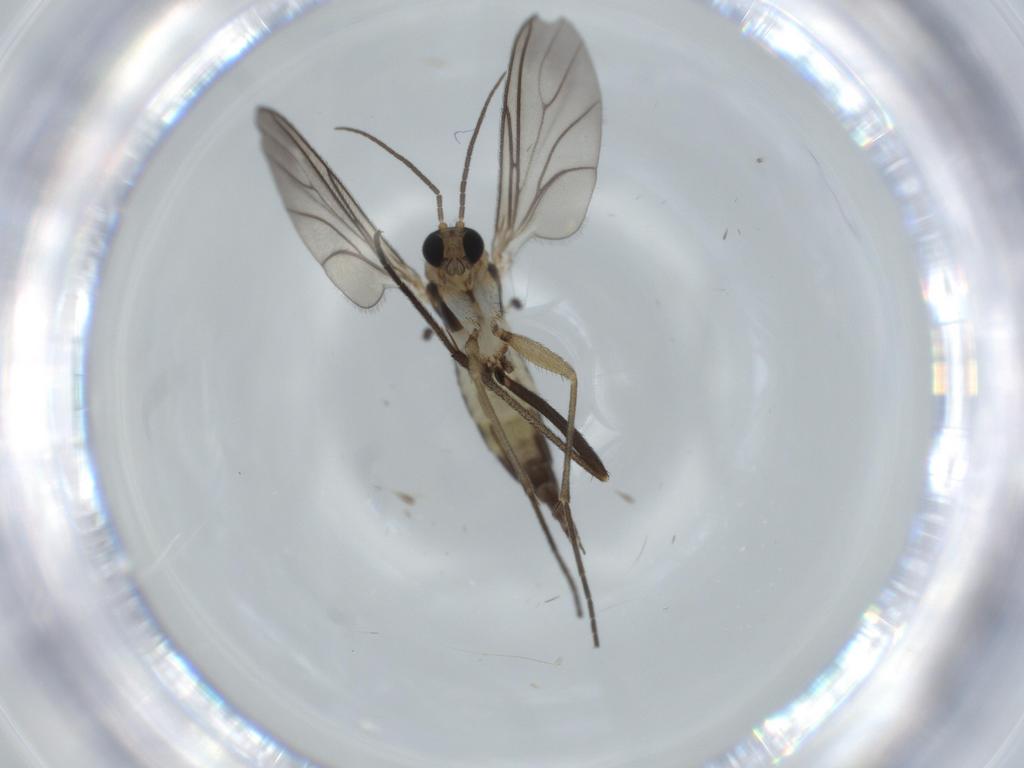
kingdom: Animalia
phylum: Arthropoda
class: Insecta
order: Diptera
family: Sciaridae
